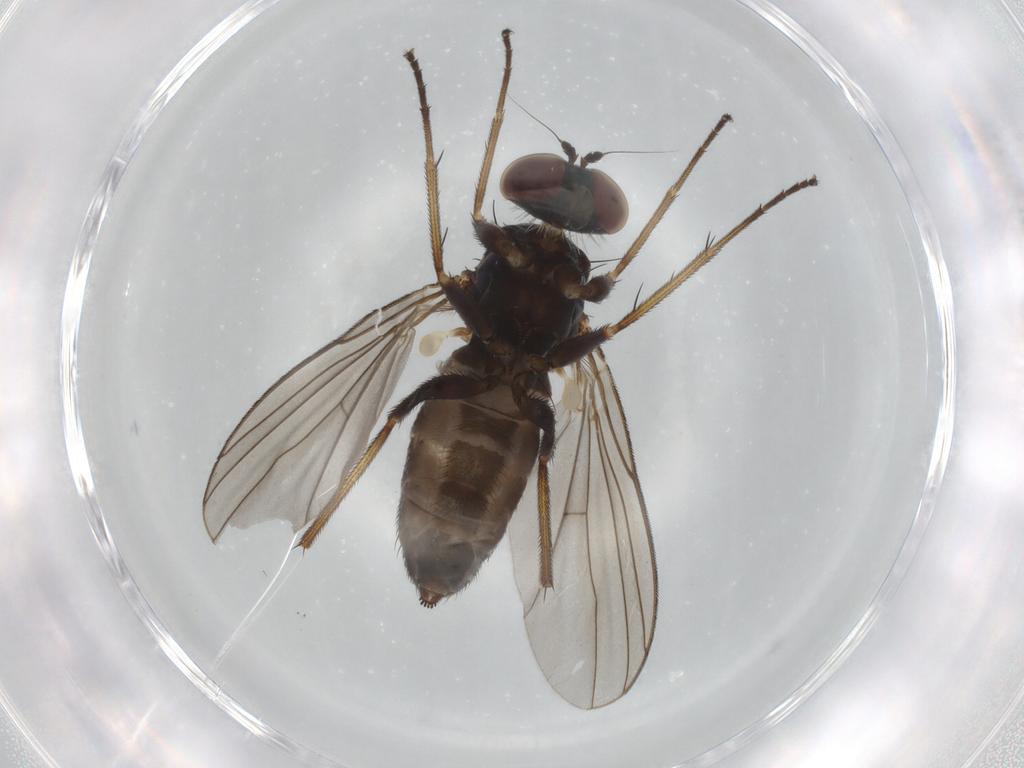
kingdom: Animalia
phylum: Arthropoda
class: Insecta
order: Diptera
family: Dolichopodidae
